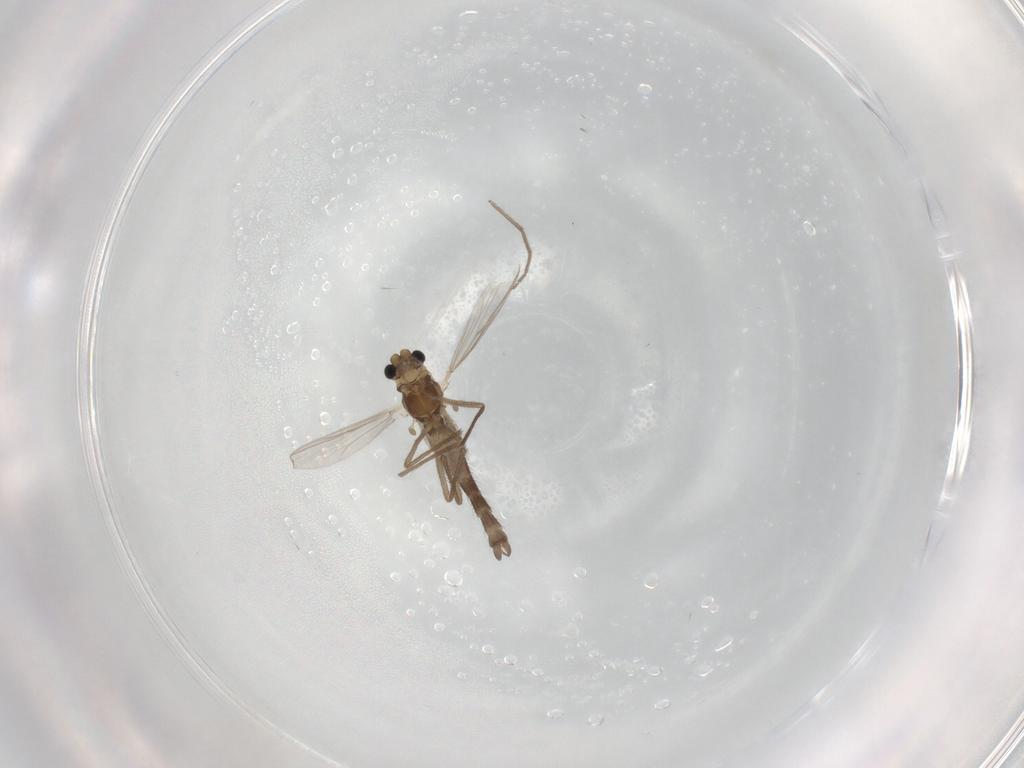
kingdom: Animalia
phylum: Arthropoda
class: Insecta
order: Diptera
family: Chironomidae
